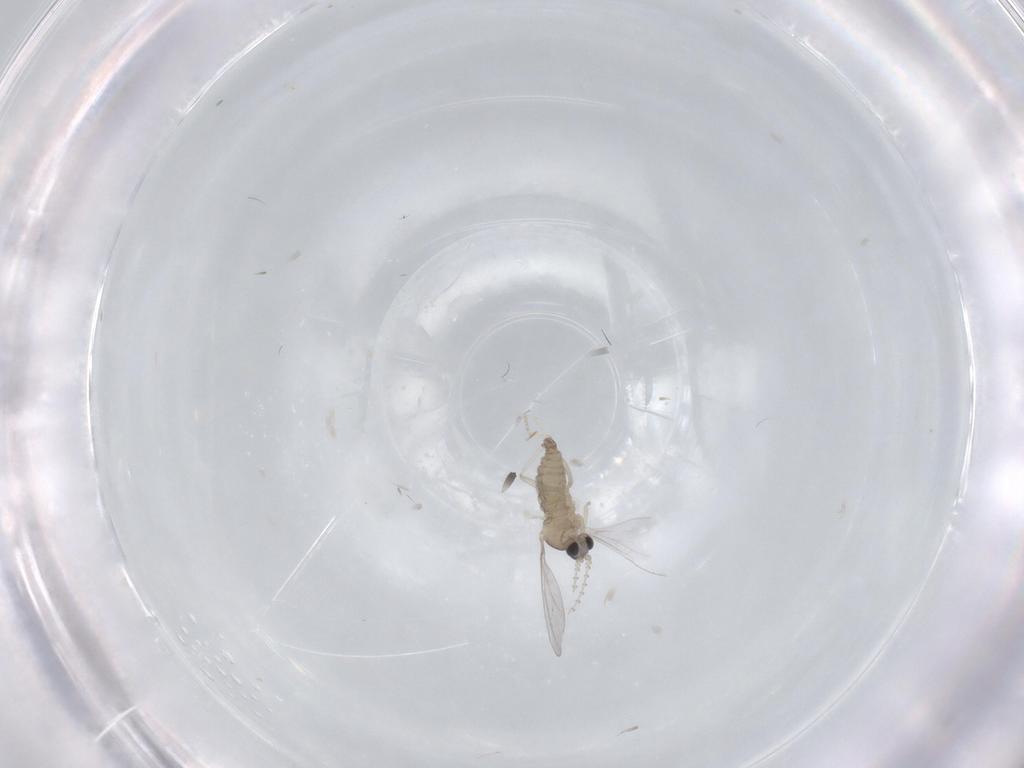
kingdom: Animalia
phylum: Arthropoda
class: Insecta
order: Diptera
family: Cecidomyiidae
